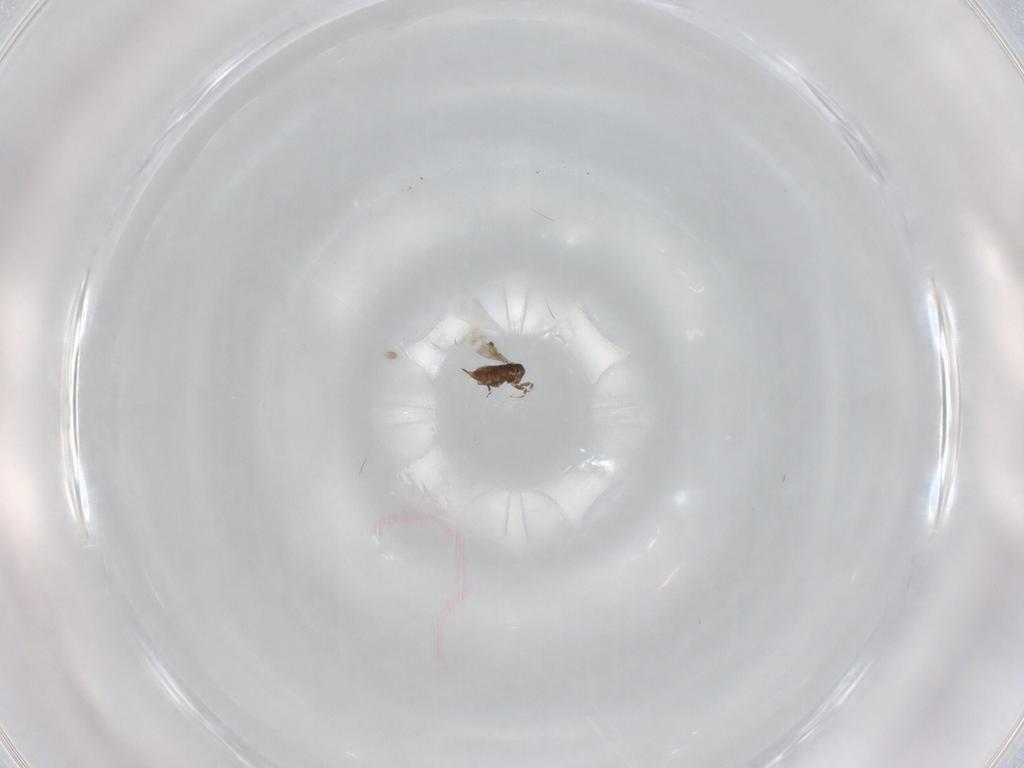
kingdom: Animalia
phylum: Arthropoda
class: Insecta
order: Hymenoptera
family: Azotidae
